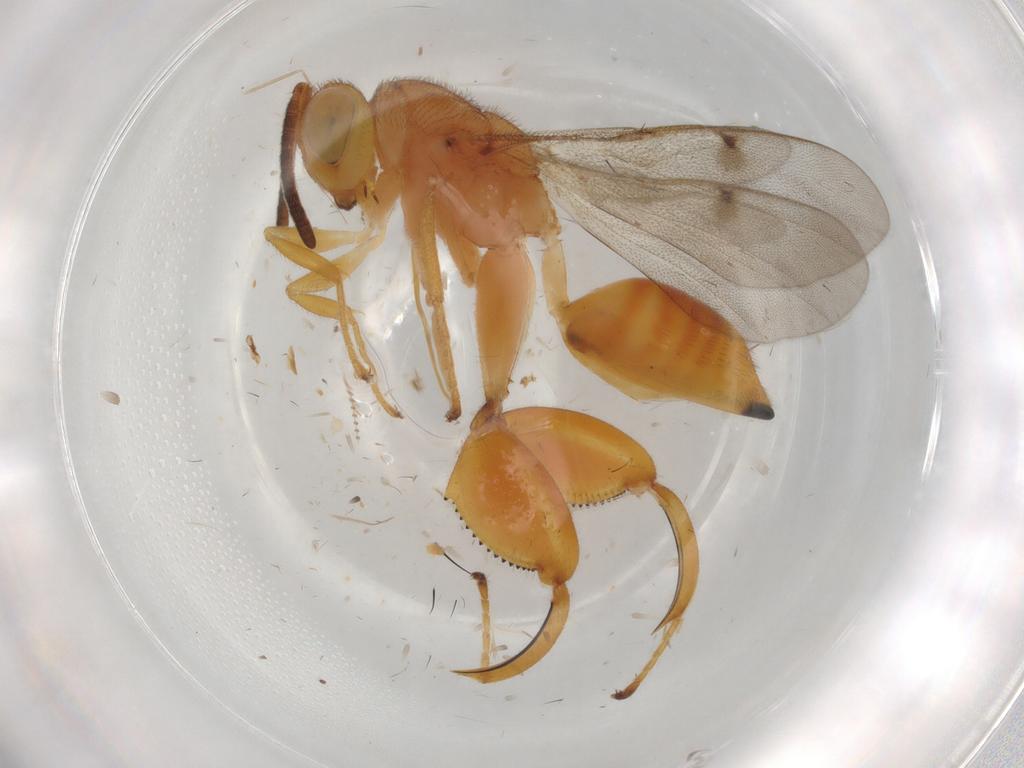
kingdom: Animalia
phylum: Arthropoda
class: Insecta
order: Hymenoptera
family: Chalcididae
